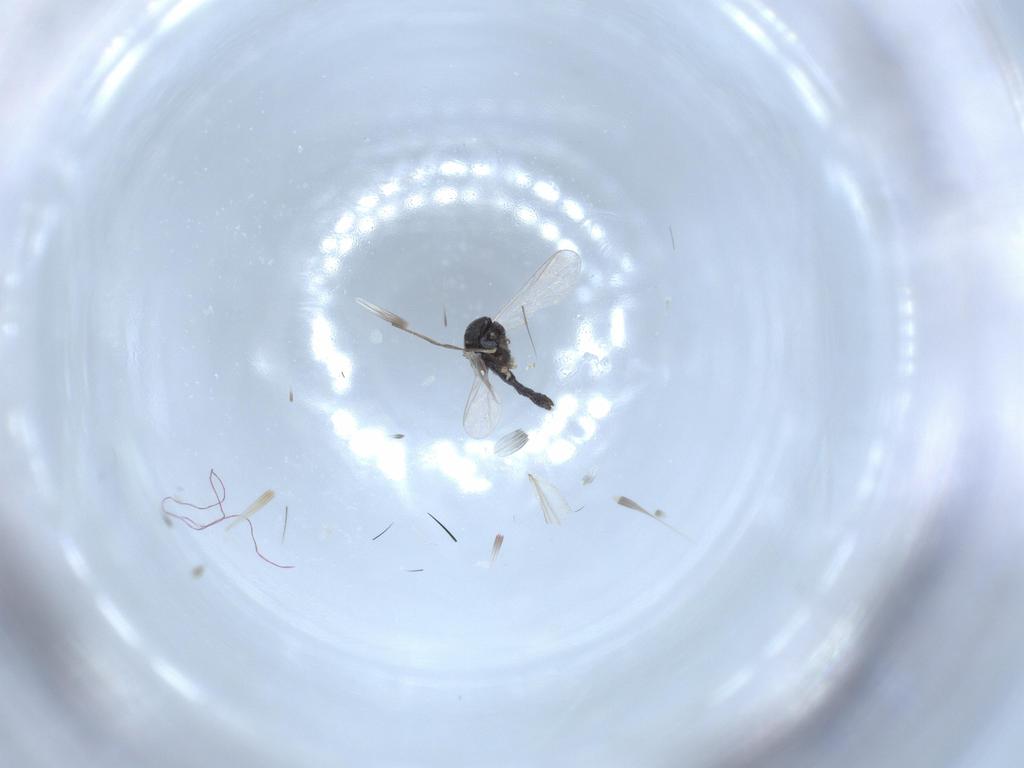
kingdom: Animalia
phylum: Arthropoda
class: Insecta
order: Diptera
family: Chironomidae
